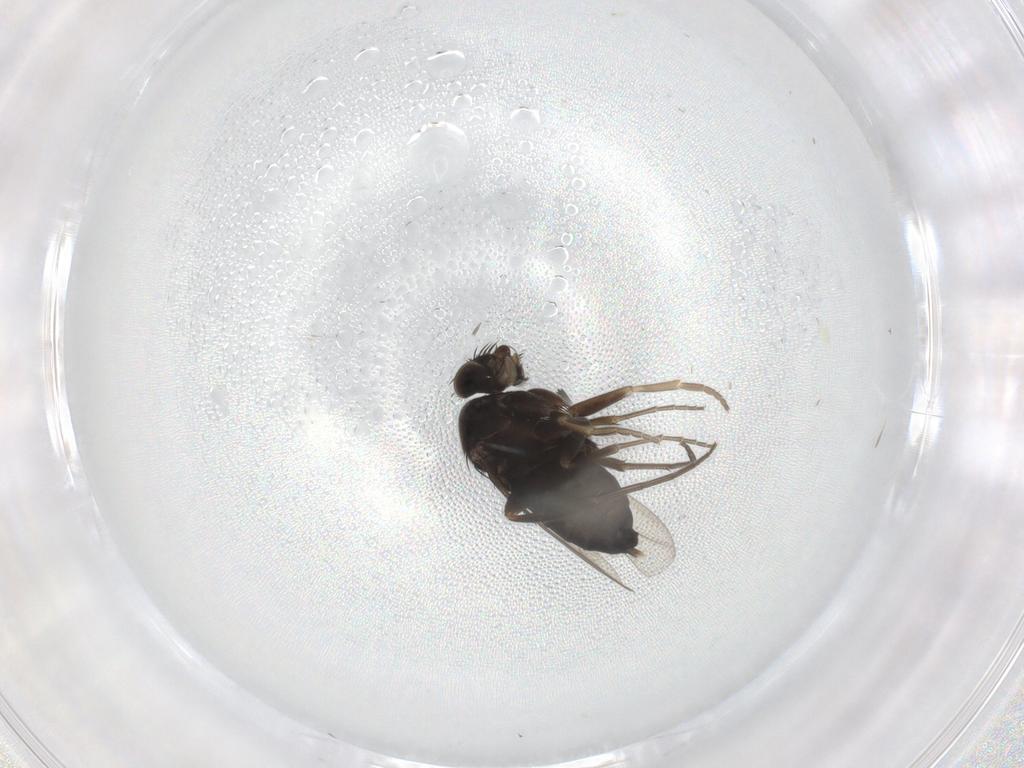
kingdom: Animalia
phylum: Arthropoda
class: Insecta
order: Diptera
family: Phoridae
